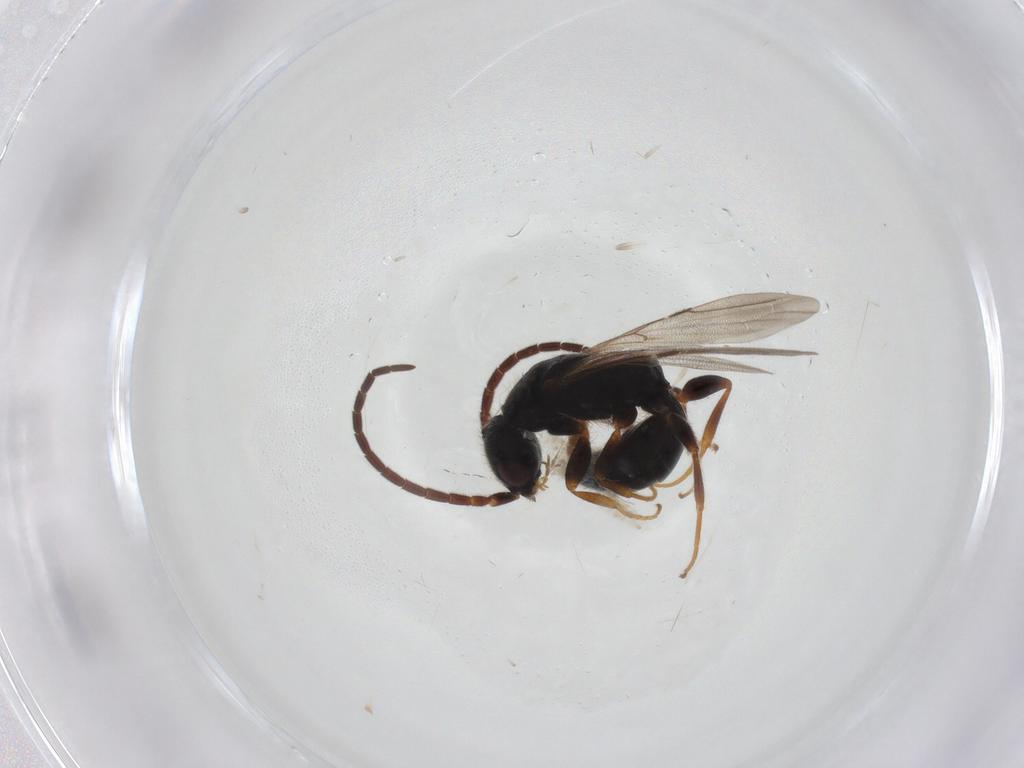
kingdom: Animalia
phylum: Arthropoda
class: Insecta
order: Hymenoptera
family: Bethylidae
